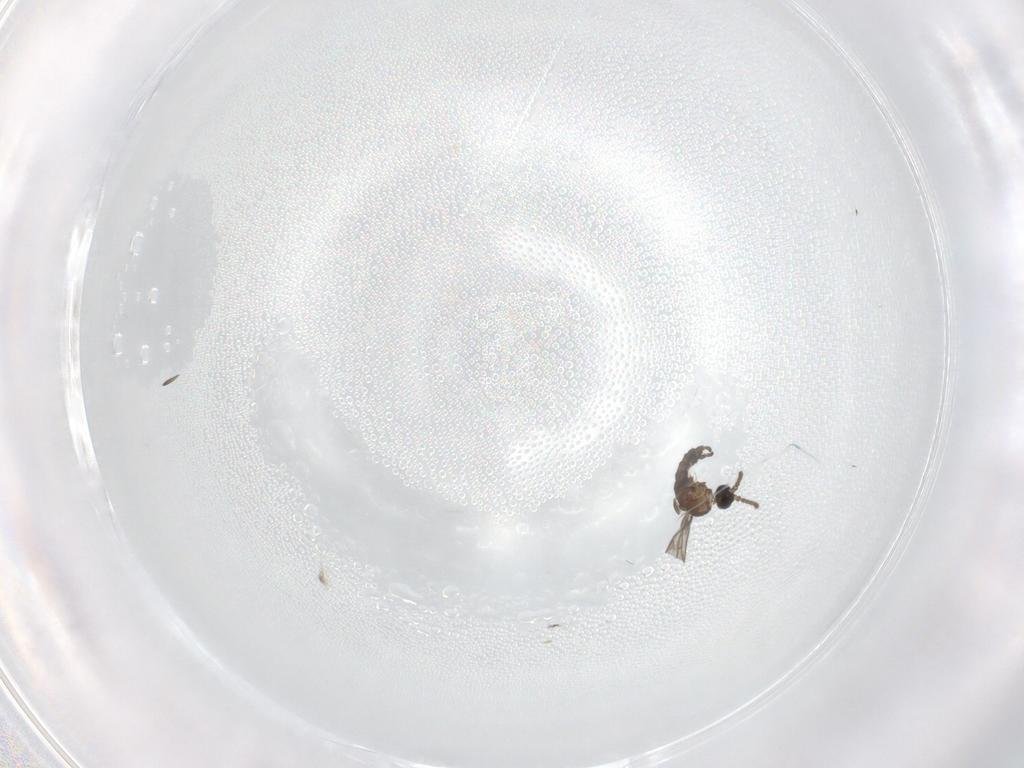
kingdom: Animalia
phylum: Arthropoda
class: Insecta
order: Diptera
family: Sciaridae
